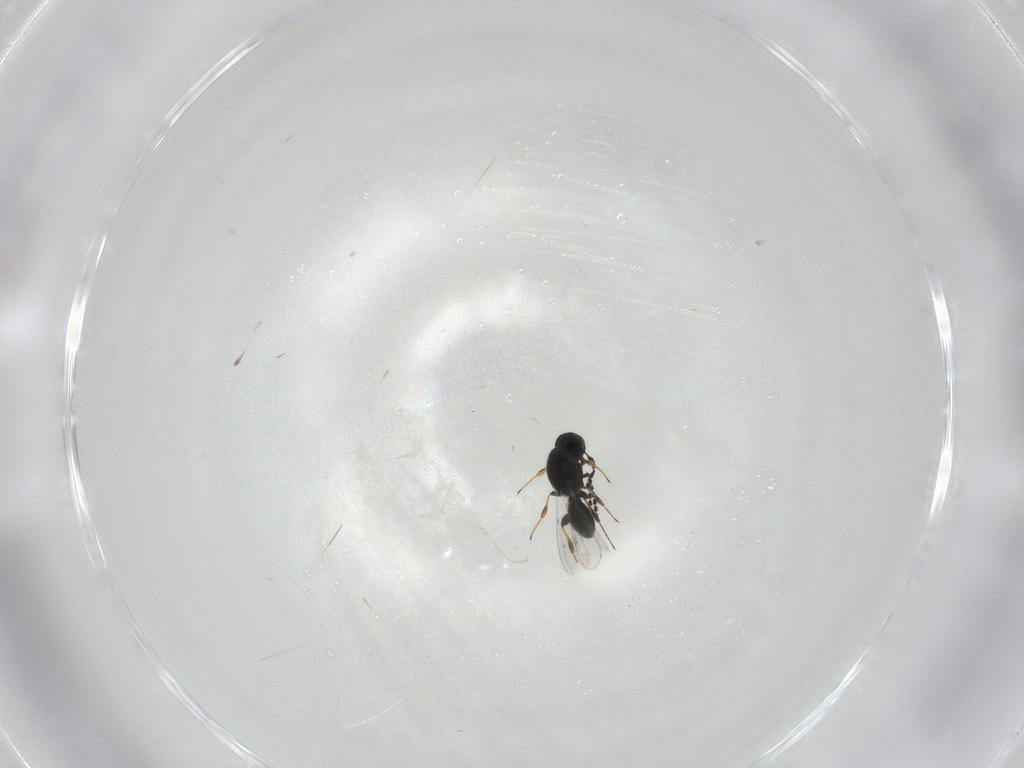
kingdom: Animalia
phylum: Arthropoda
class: Insecta
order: Hymenoptera
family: Platygastridae
